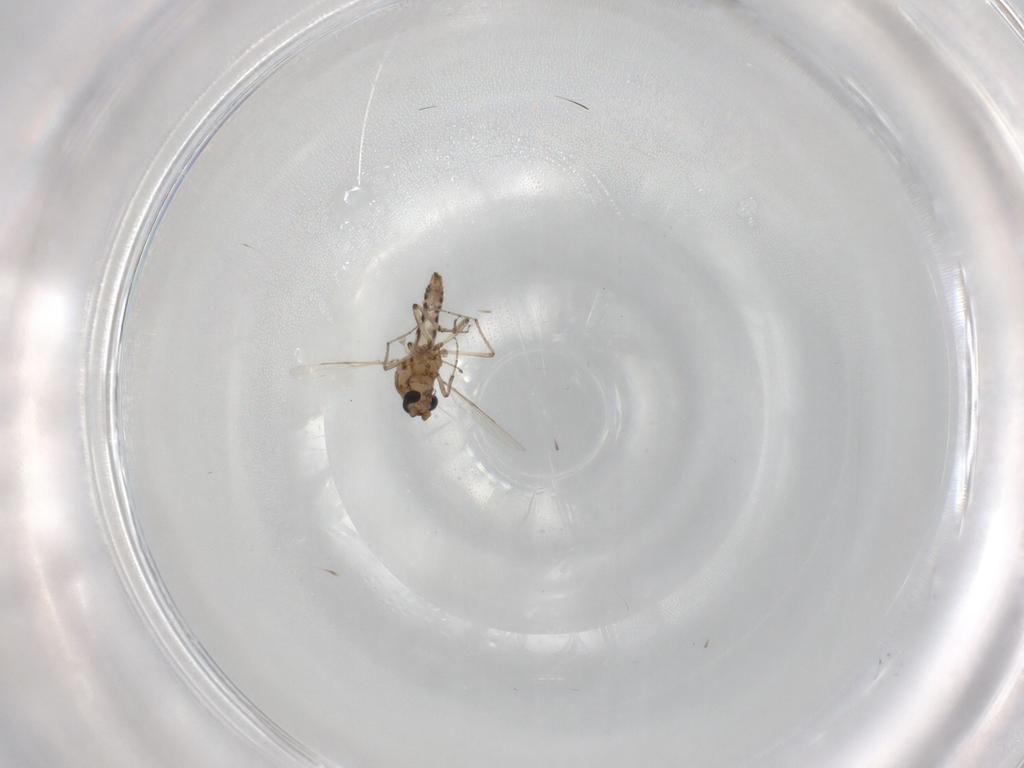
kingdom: Animalia
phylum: Arthropoda
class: Insecta
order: Diptera
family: Ceratopogonidae
